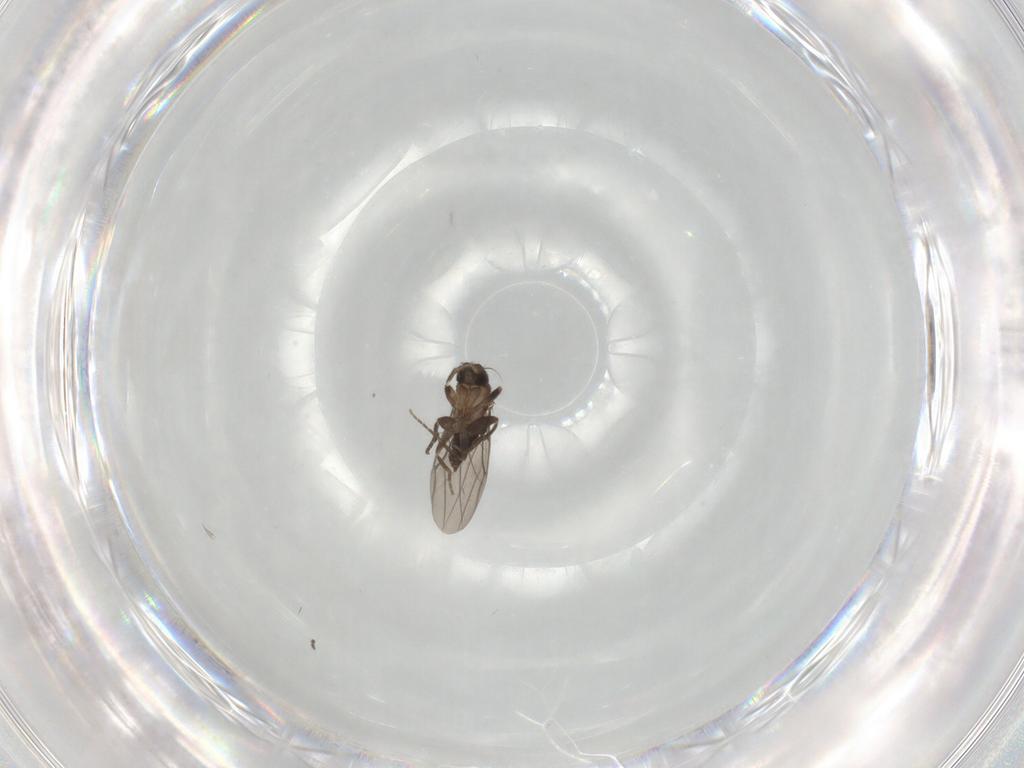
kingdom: Animalia
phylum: Arthropoda
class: Insecta
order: Diptera
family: Sciaridae
